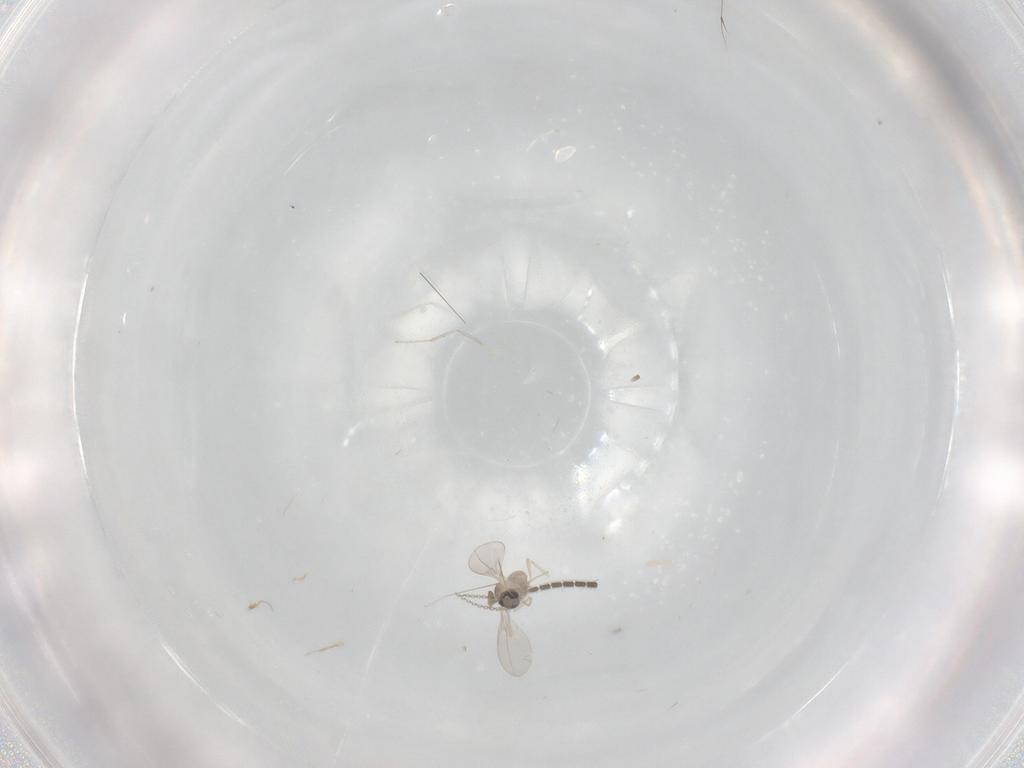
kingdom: Animalia
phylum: Arthropoda
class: Insecta
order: Diptera
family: Sciaridae
